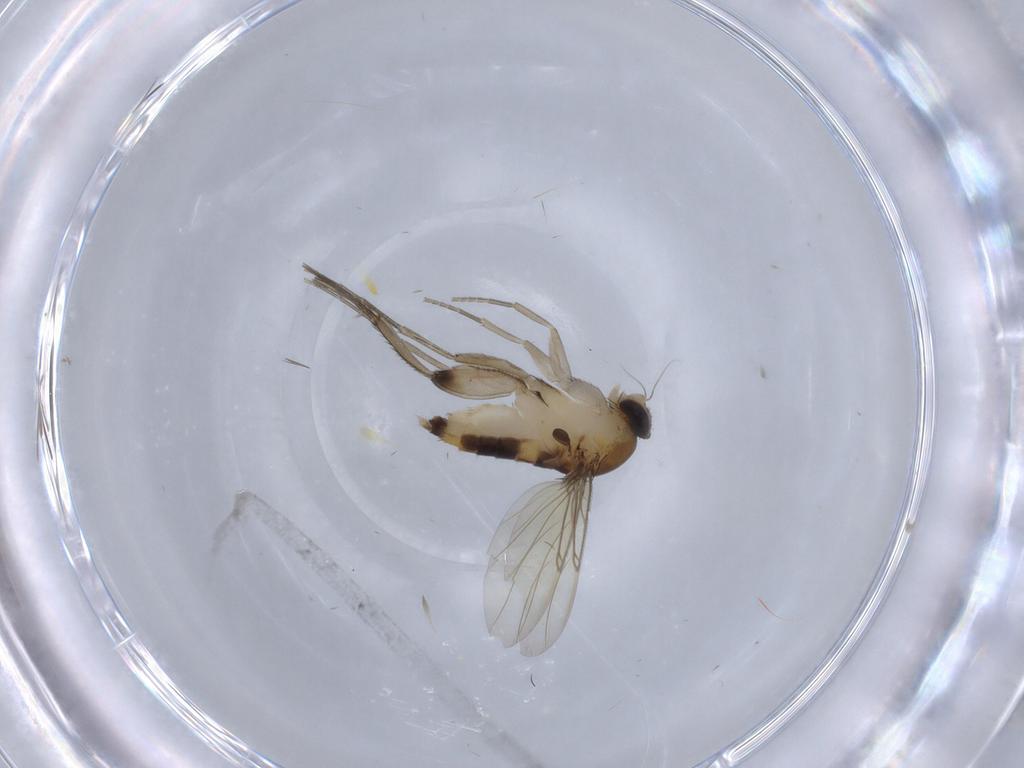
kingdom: Animalia
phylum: Arthropoda
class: Insecta
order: Diptera
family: Phoridae
